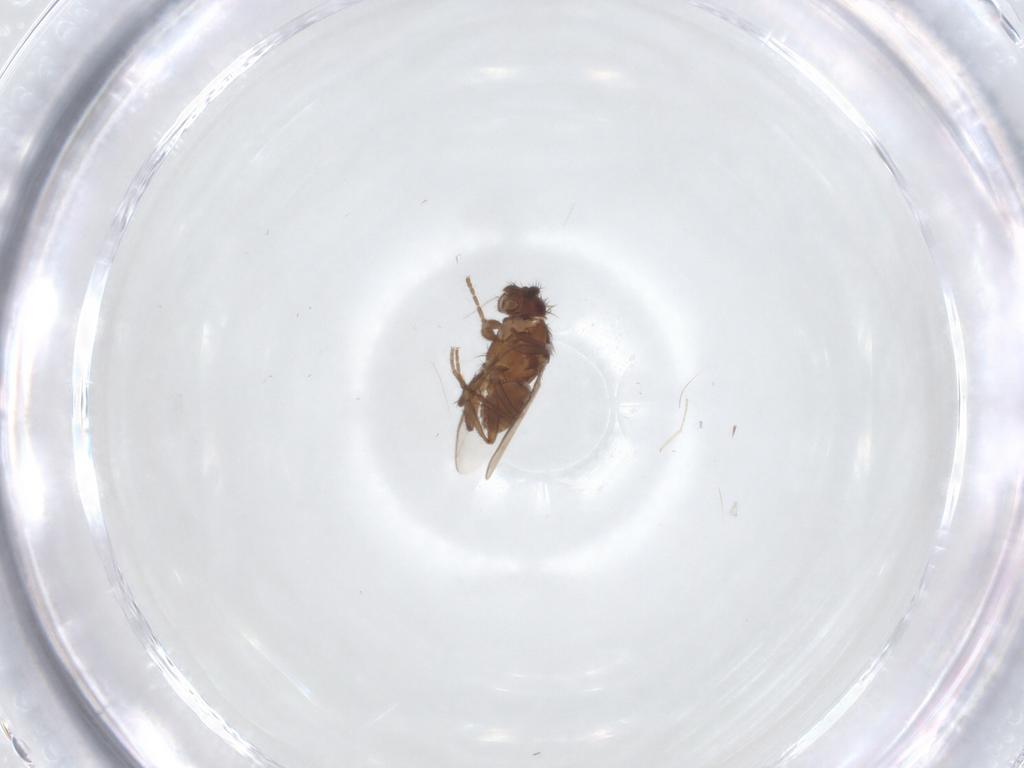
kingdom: Animalia
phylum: Arthropoda
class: Insecta
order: Diptera
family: Cecidomyiidae
